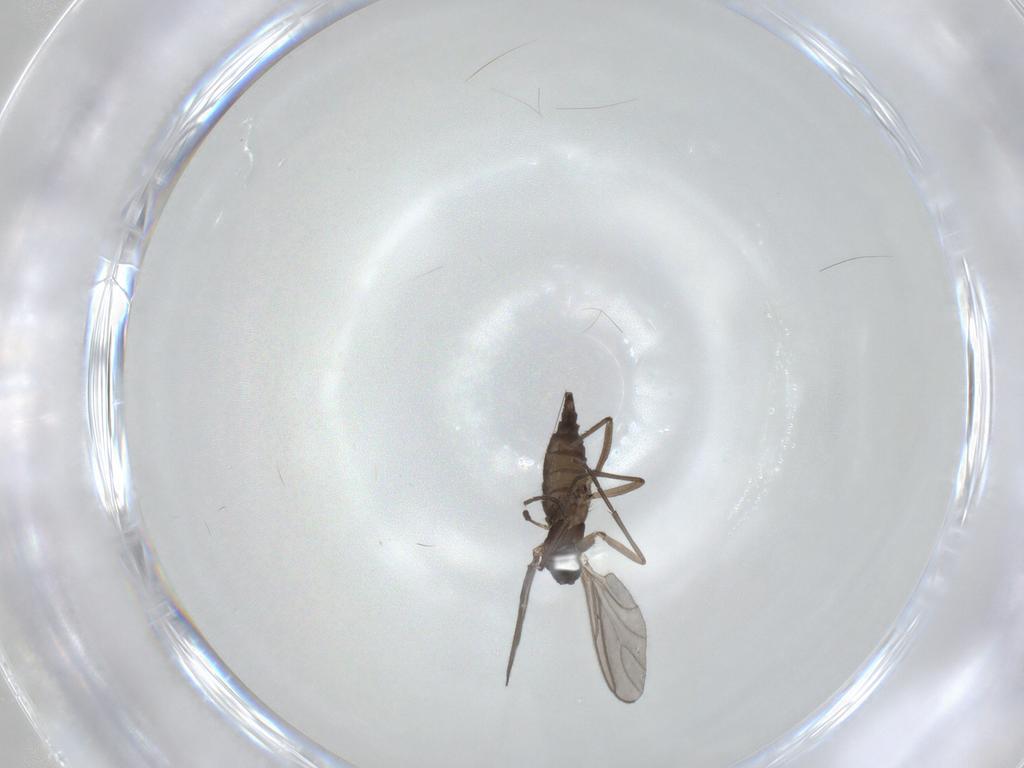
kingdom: Animalia
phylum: Arthropoda
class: Insecta
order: Diptera
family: Sciaridae
